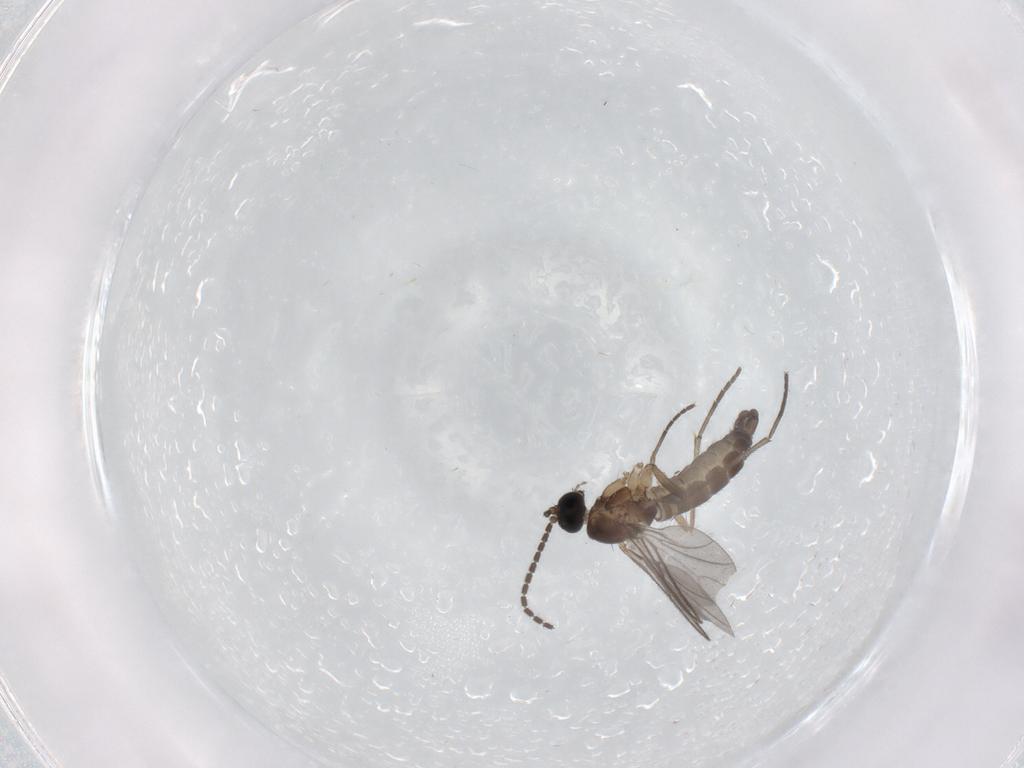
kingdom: Animalia
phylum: Arthropoda
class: Insecta
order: Diptera
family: Sciaridae
